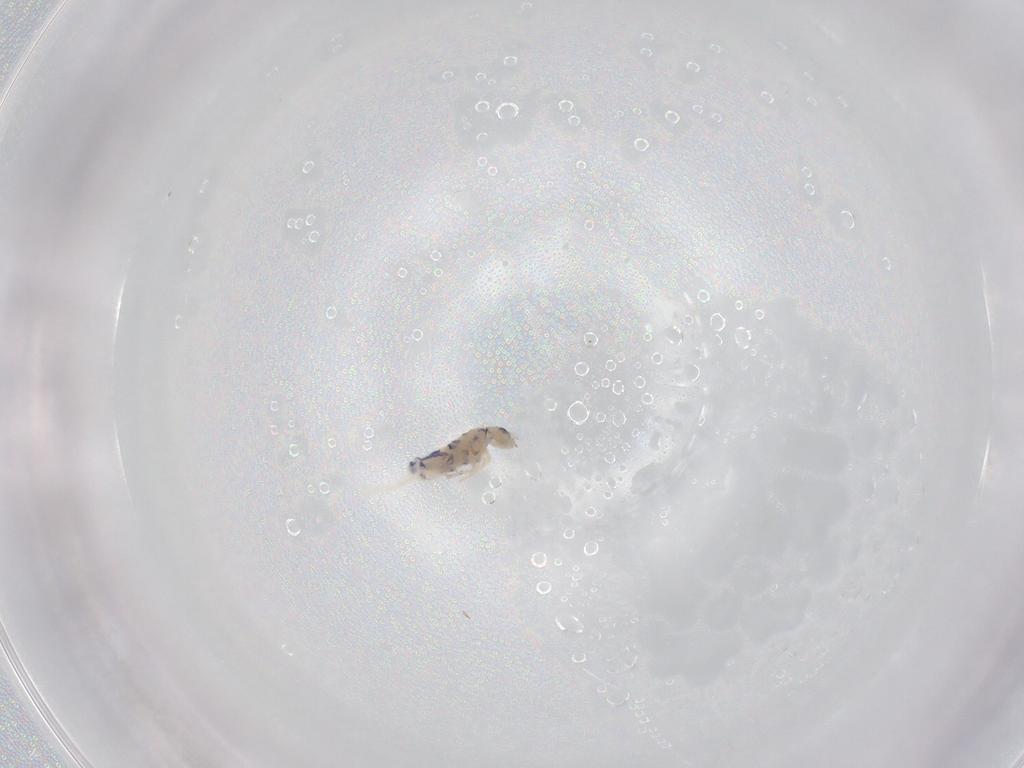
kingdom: Animalia
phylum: Arthropoda
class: Collembola
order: Entomobryomorpha
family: Entomobryidae
